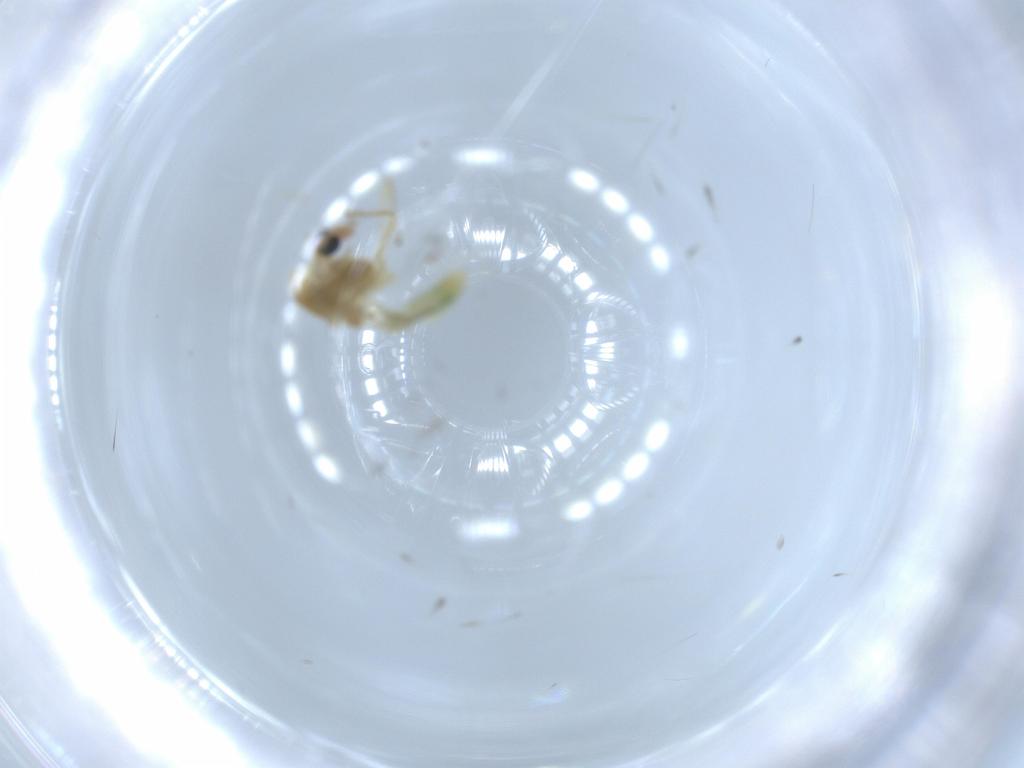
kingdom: Animalia
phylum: Arthropoda
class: Insecta
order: Diptera
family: Chironomidae
